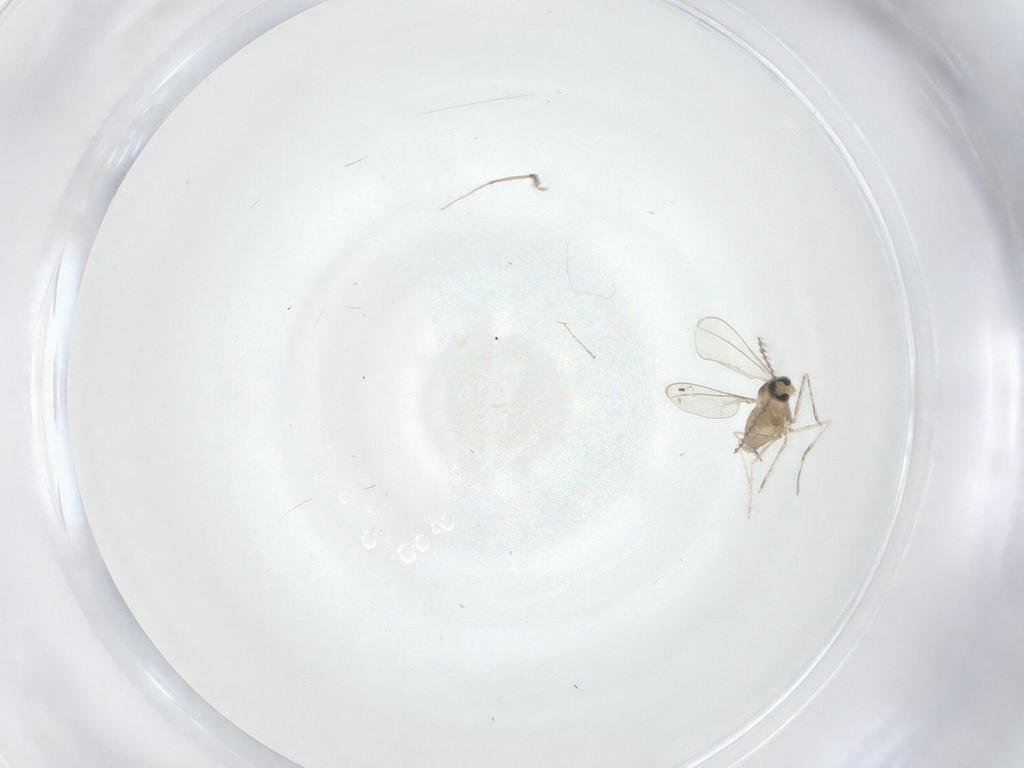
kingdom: Animalia
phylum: Arthropoda
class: Insecta
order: Diptera
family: Cecidomyiidae
